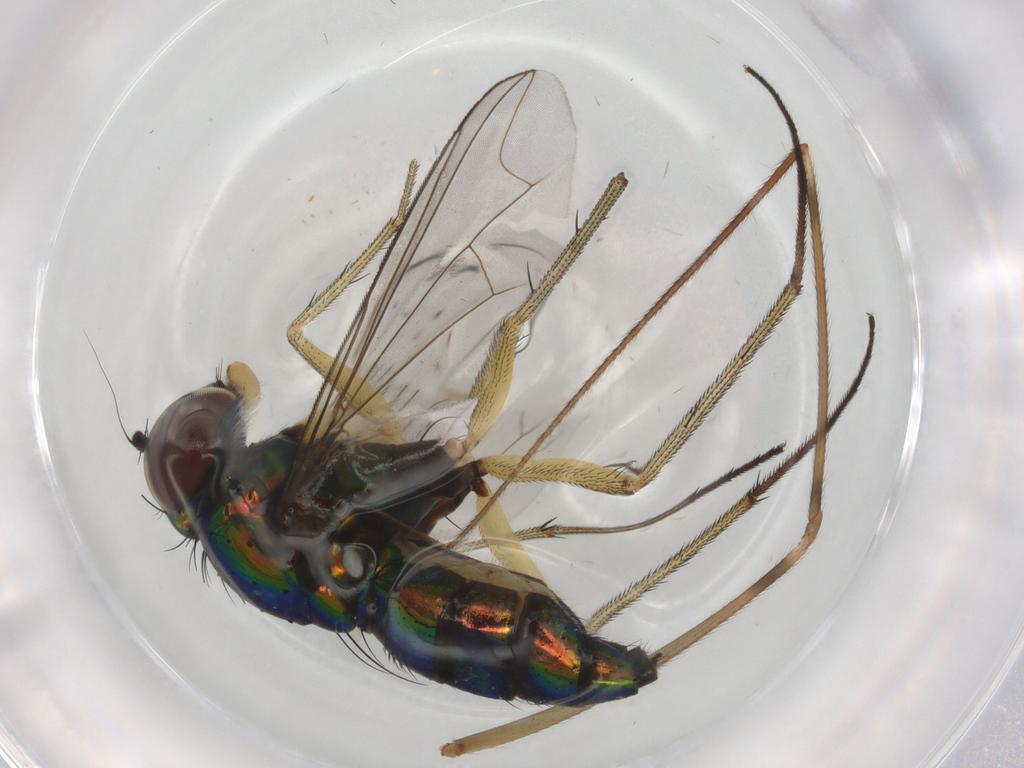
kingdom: Animalia
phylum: Arthropoda
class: Insecta
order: Diptera
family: Dolichopodidae
